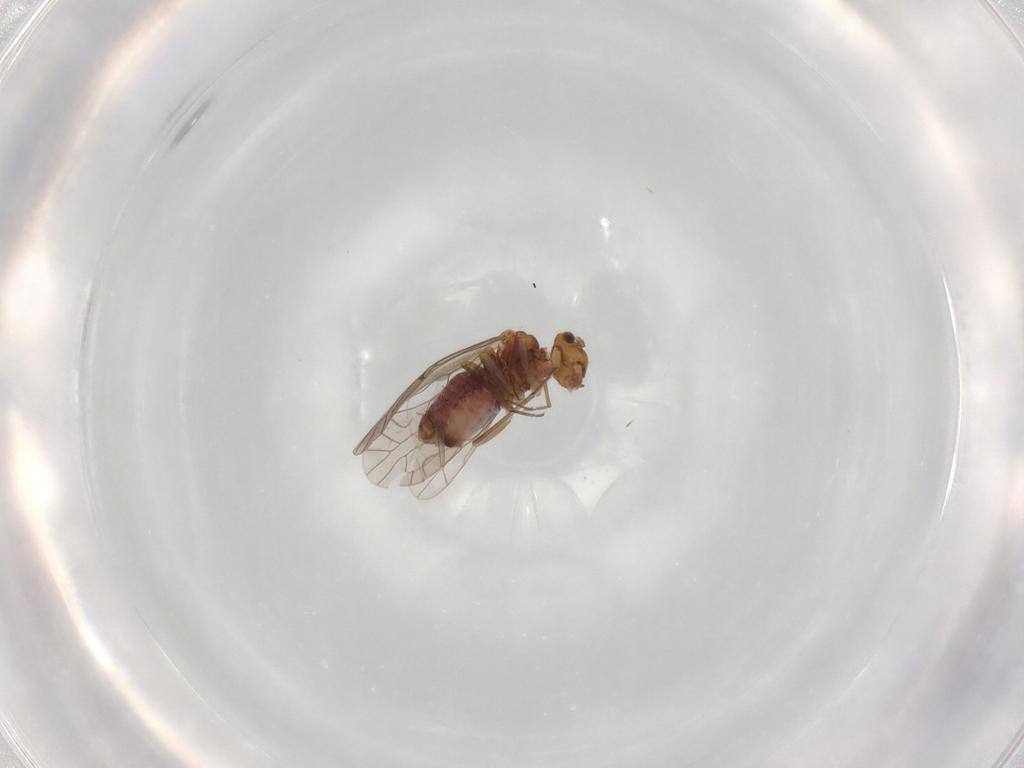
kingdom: Animalia
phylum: Arthropoda
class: Insecta
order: Psocodea
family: Lachesillidae
